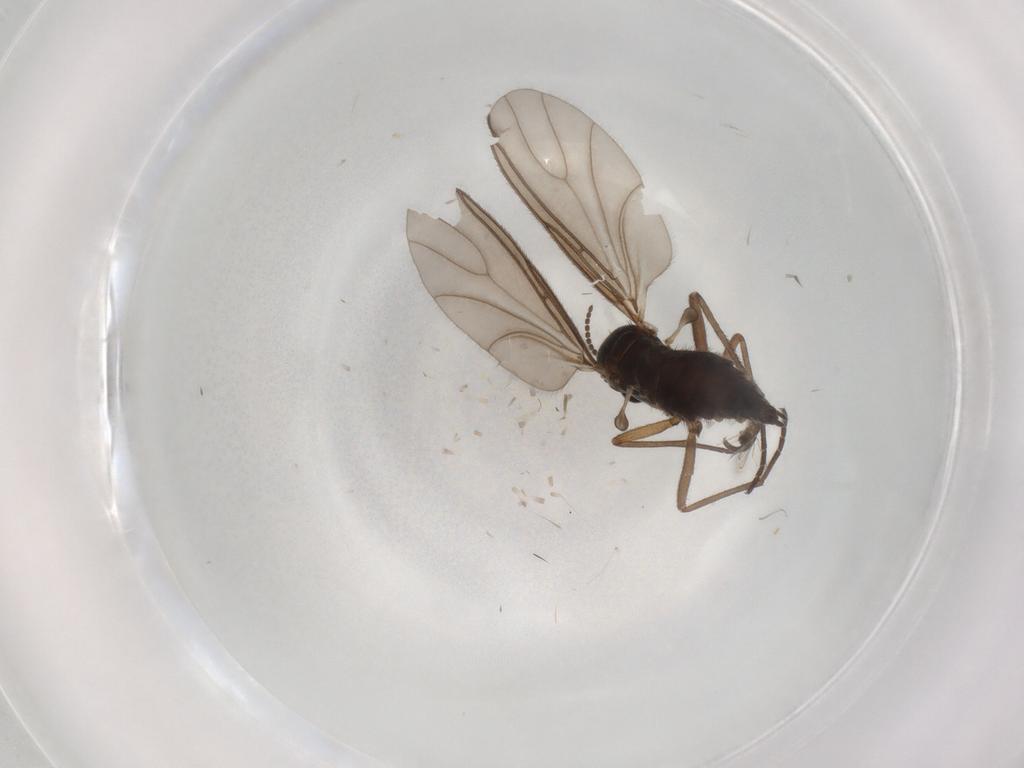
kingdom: Animalia
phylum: Arthropoda
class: Insecta
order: Diptera
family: Sciaridae
